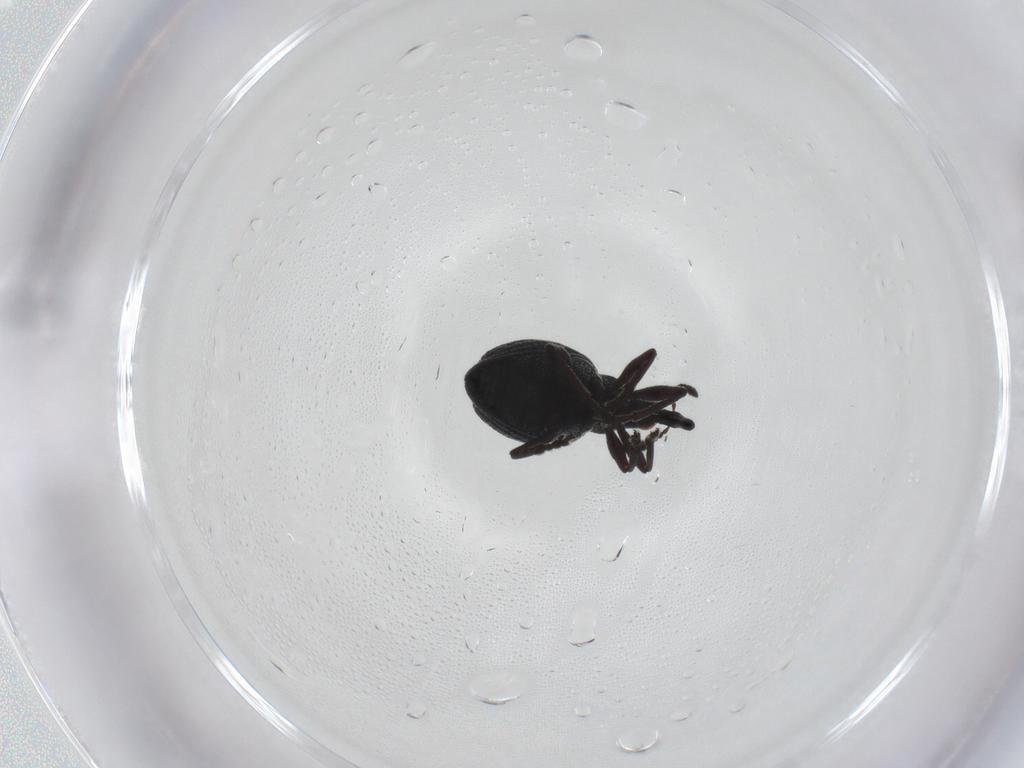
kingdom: Animalia
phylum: Arthropoda
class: Insecta
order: Coleoptera
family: Brentidae
